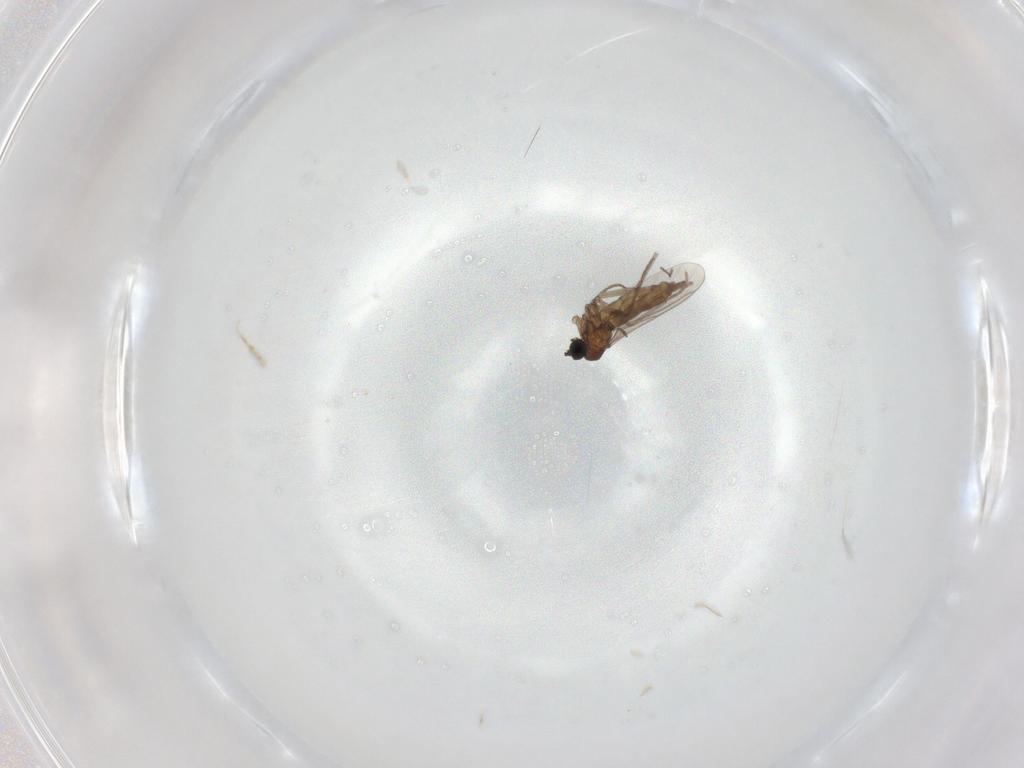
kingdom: Animalia
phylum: Arthropoda
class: Insecta
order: Diptera
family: Sciaridae
